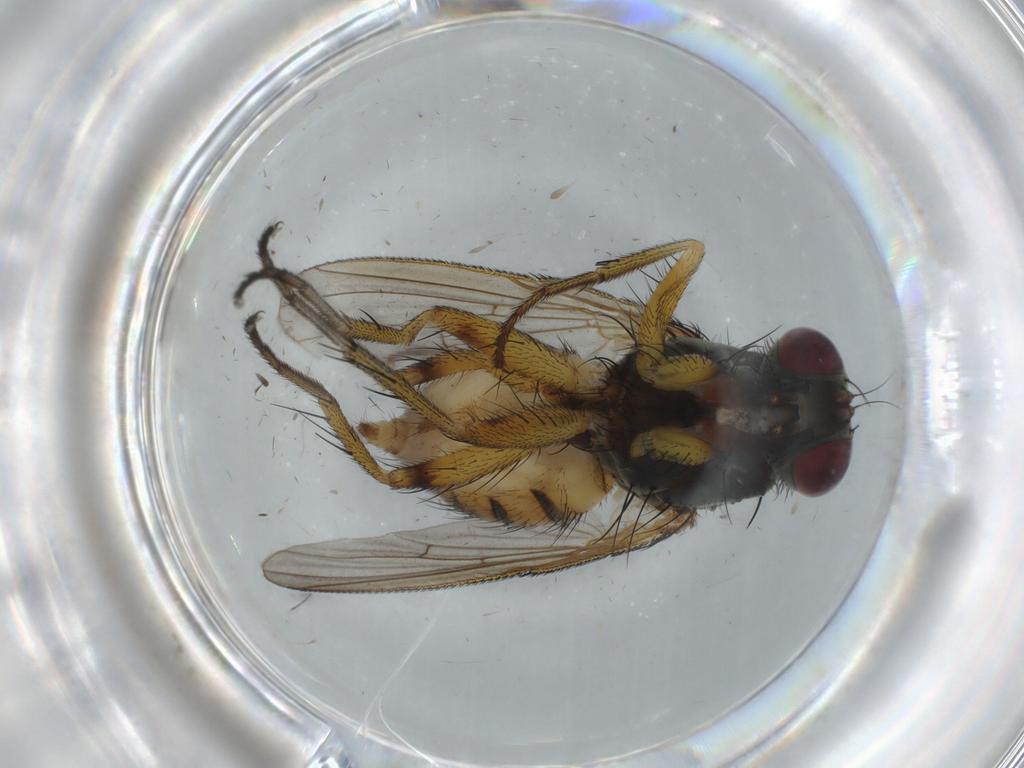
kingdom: Animalia
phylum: Arthropoda
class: Insecta
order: Diptera
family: Muscidae
